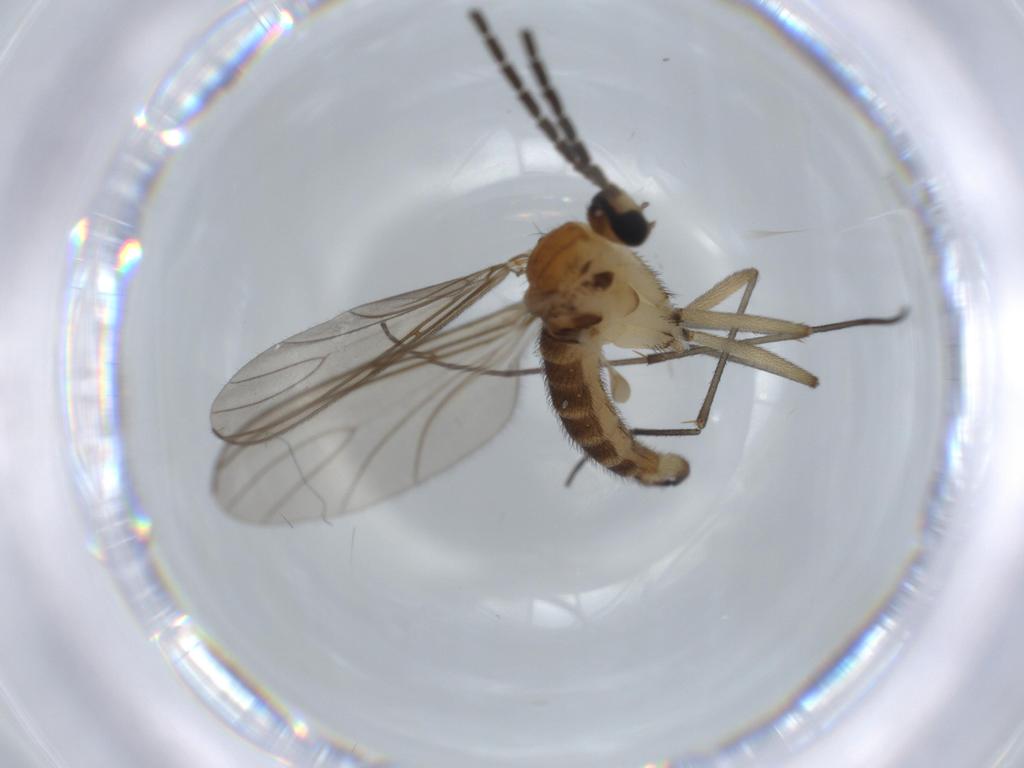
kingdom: Animalia
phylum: Arthropoda
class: Insecta
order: Diptera
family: Sciaridae
